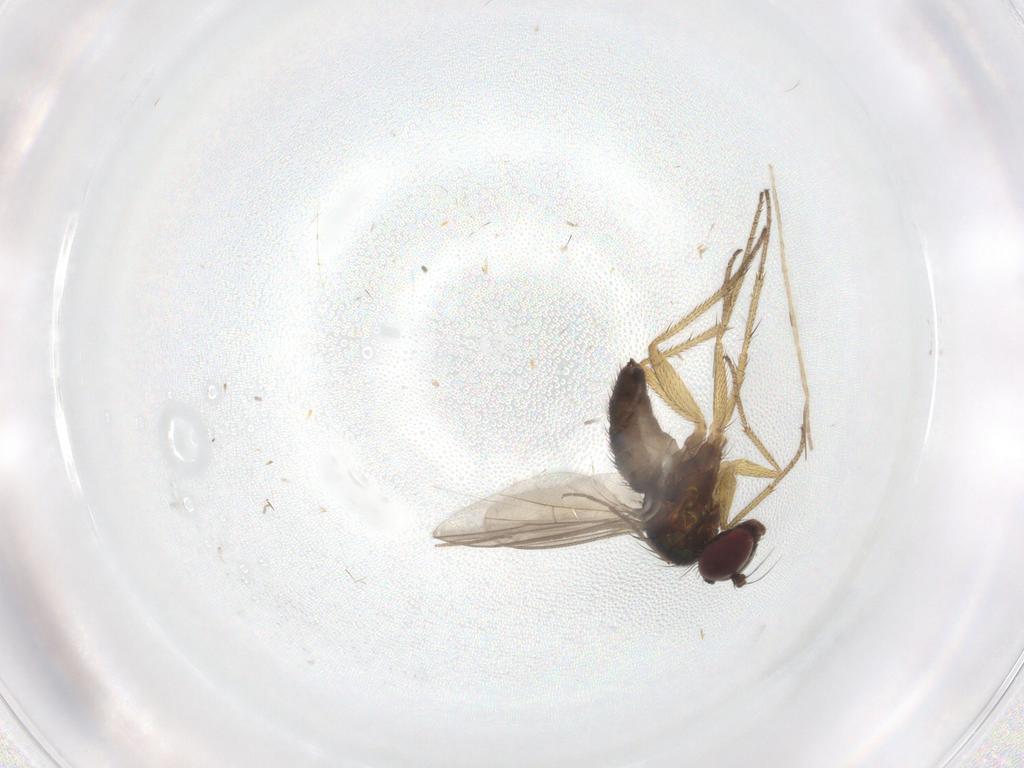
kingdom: Animalia
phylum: Arthropoda
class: Insecta
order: Diptera
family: Chironomidae
